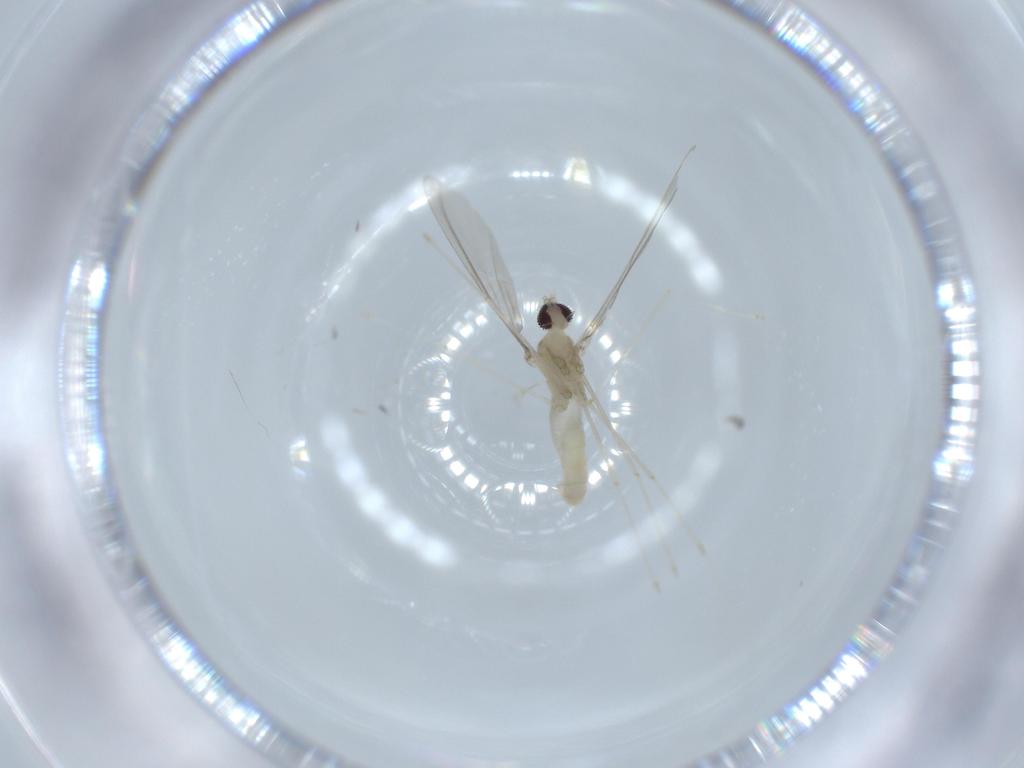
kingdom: Animalia
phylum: Arthropoda
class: Insecta
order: Diptera
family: Cecidomyiidae
